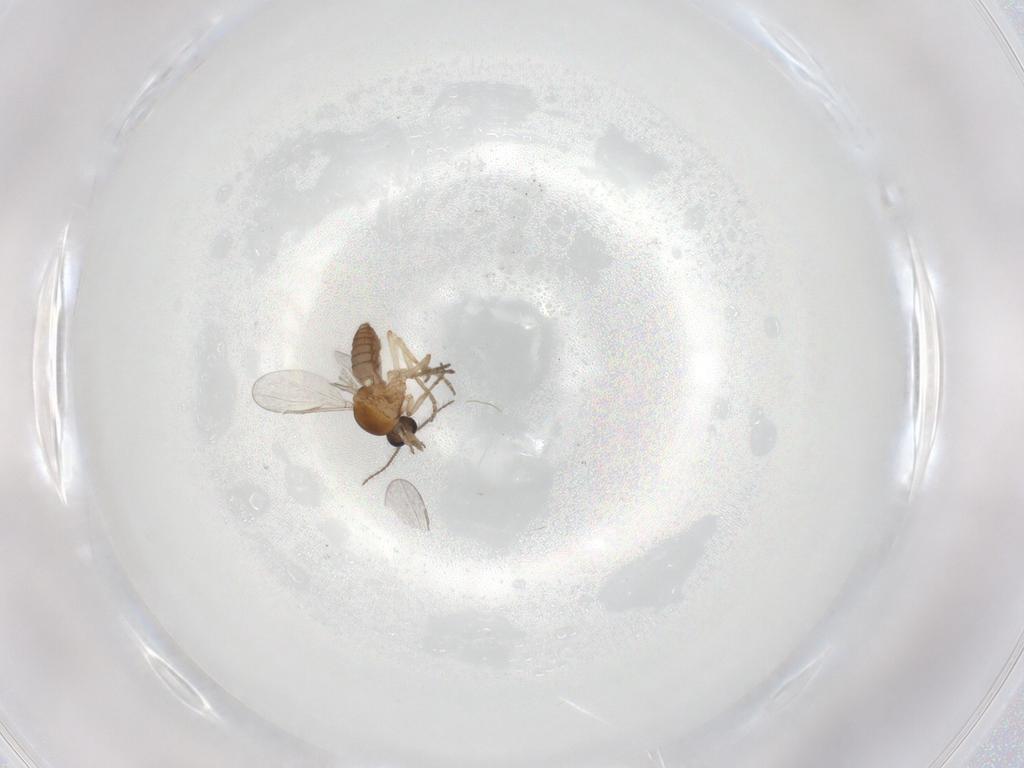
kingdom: Animalia
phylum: Arthropoda
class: Insecta
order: Diptera
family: Ceratopogonidae
